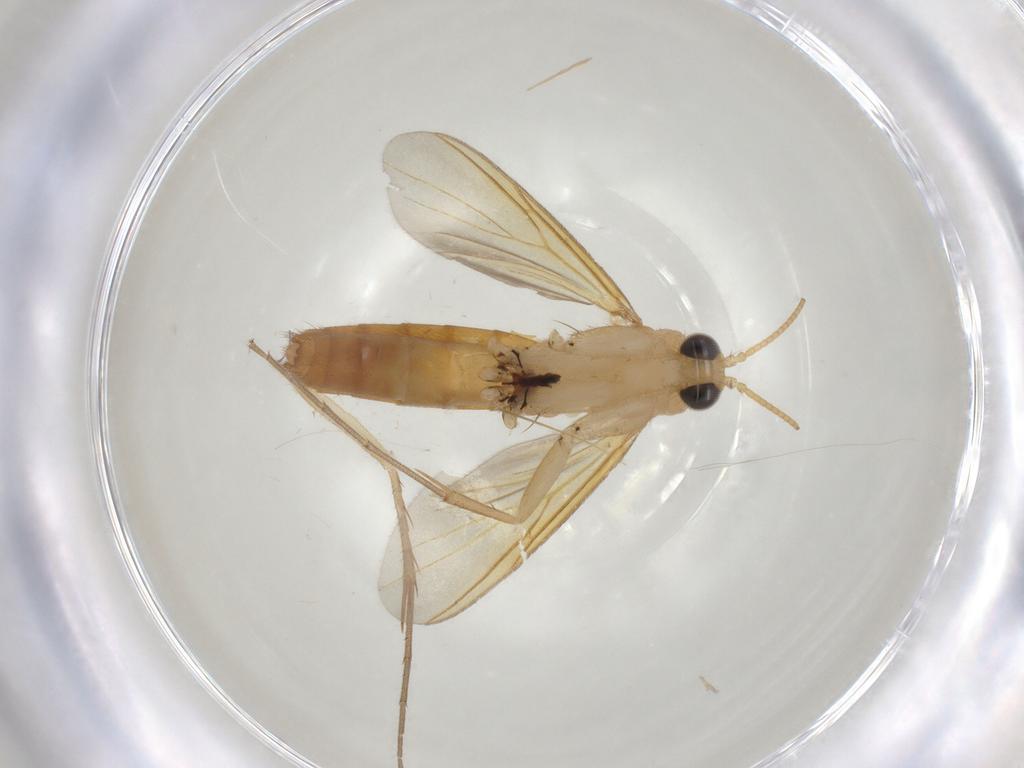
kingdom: Animalia
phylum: Arthropoda
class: Insecta
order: Diptera
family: Mycetophilidae
